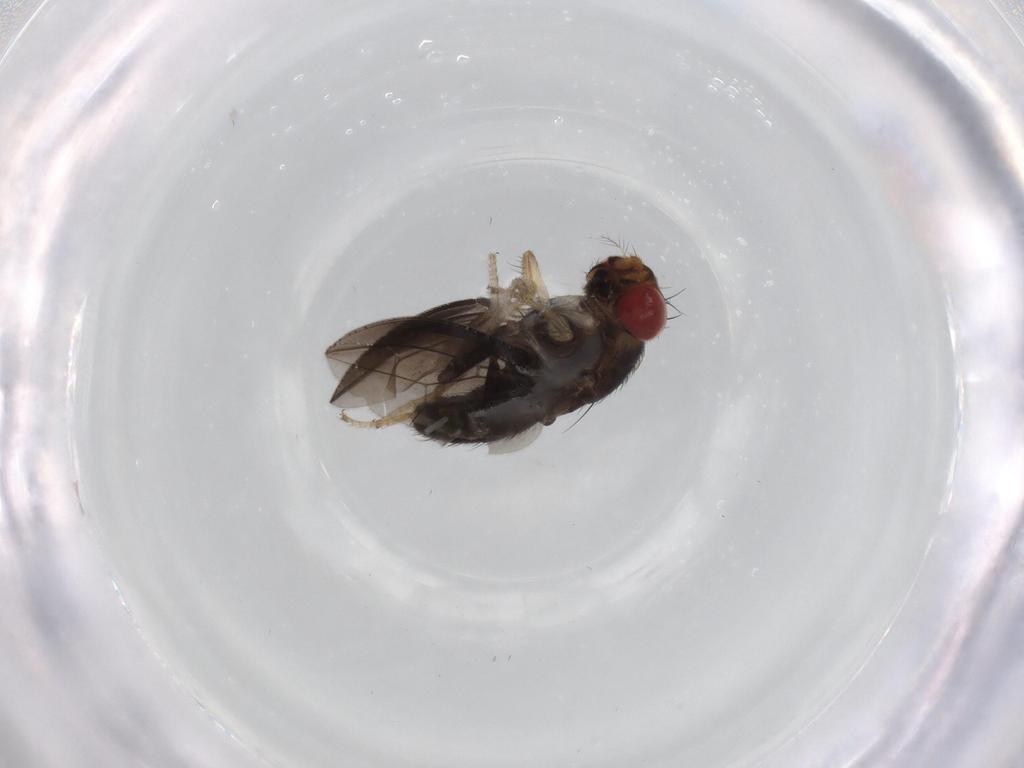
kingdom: Animalia
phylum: Arthropoda
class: Insecta
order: Diptera
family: Drosophilidae
